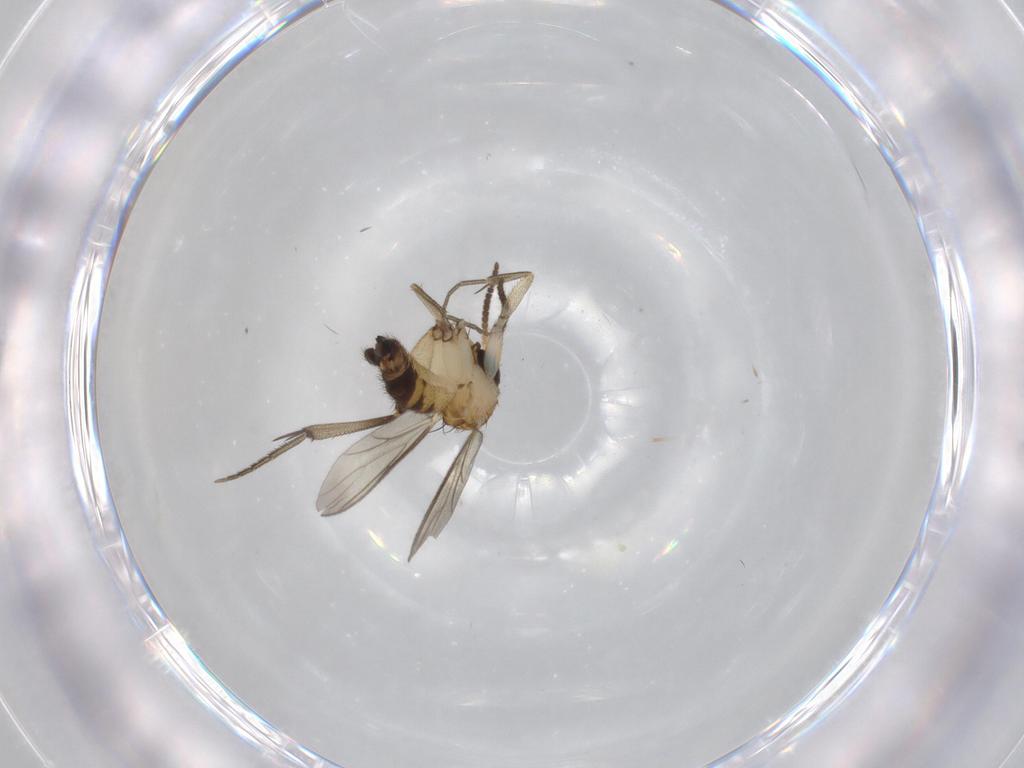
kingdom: Animalia
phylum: Arthropoda
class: Insecta
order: Diptera
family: Mycetophilidae
